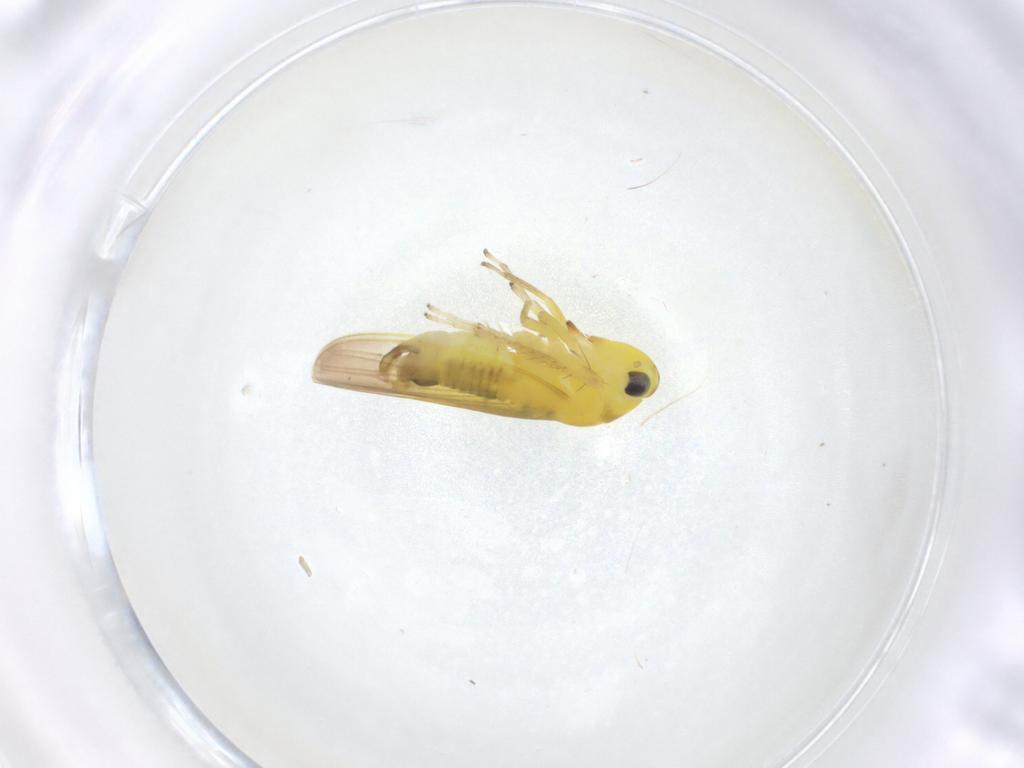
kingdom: Animalia
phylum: Arthropoda
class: Insecta
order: Hemiptera
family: Cicadellidae
